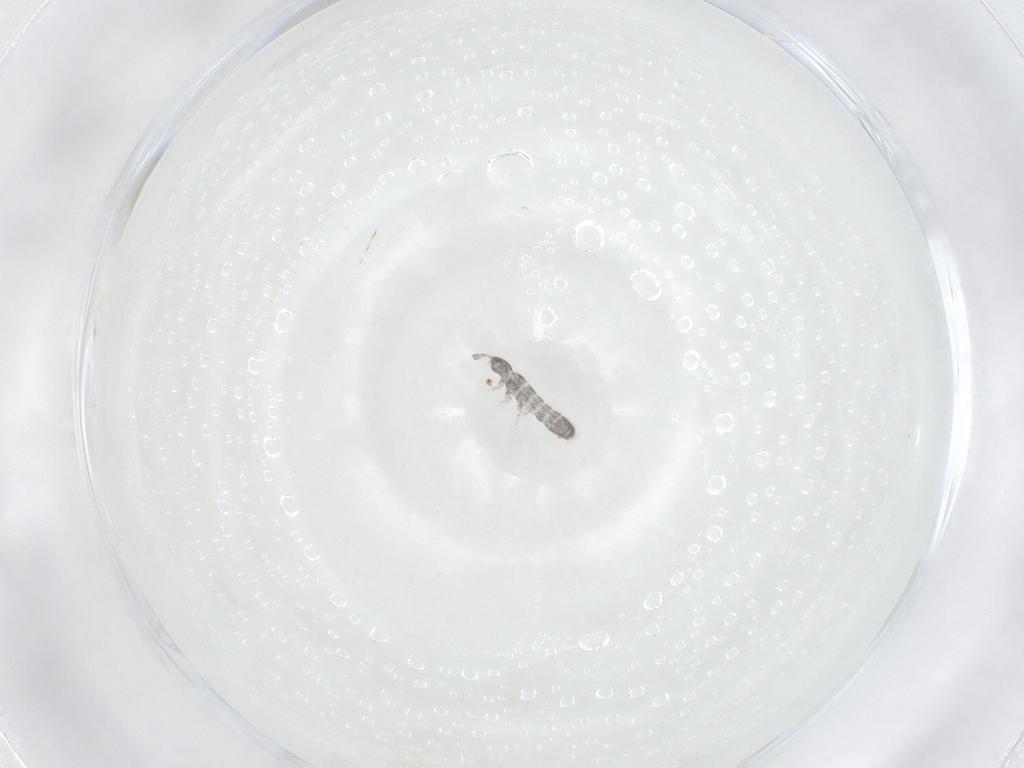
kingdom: Animalia
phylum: Arthropoda
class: Collembola
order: Entomobryomorpha
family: Isotomidae
